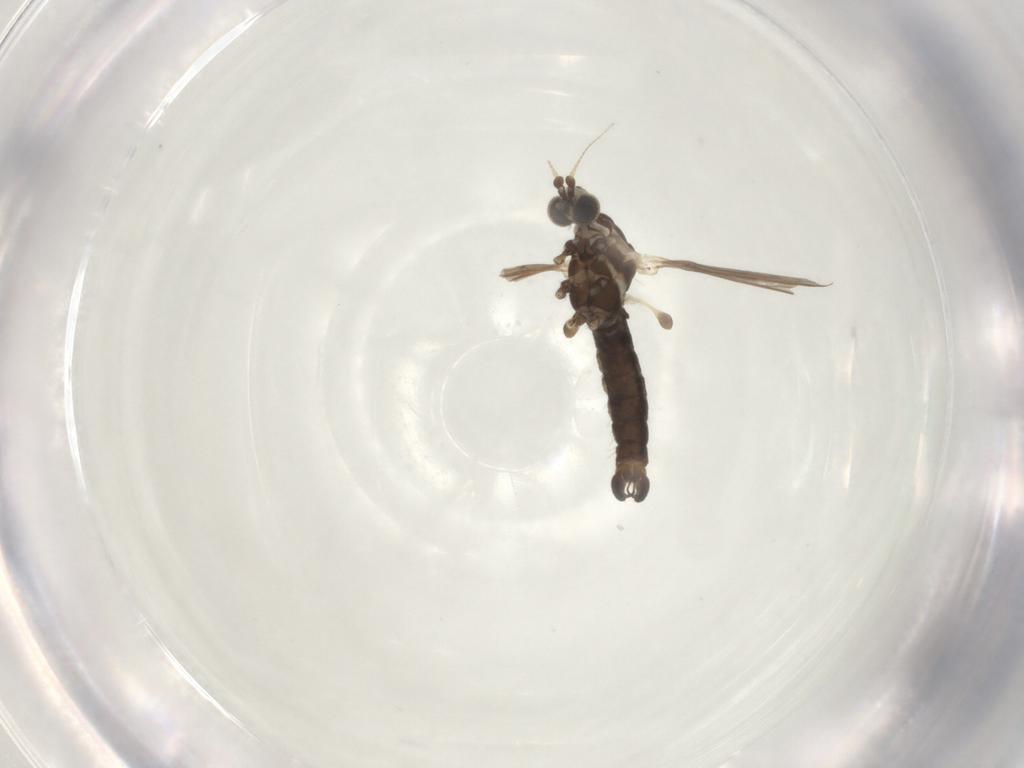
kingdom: Animalia
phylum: Arthropoda
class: Insecta
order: Diptera
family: Limoniidae
